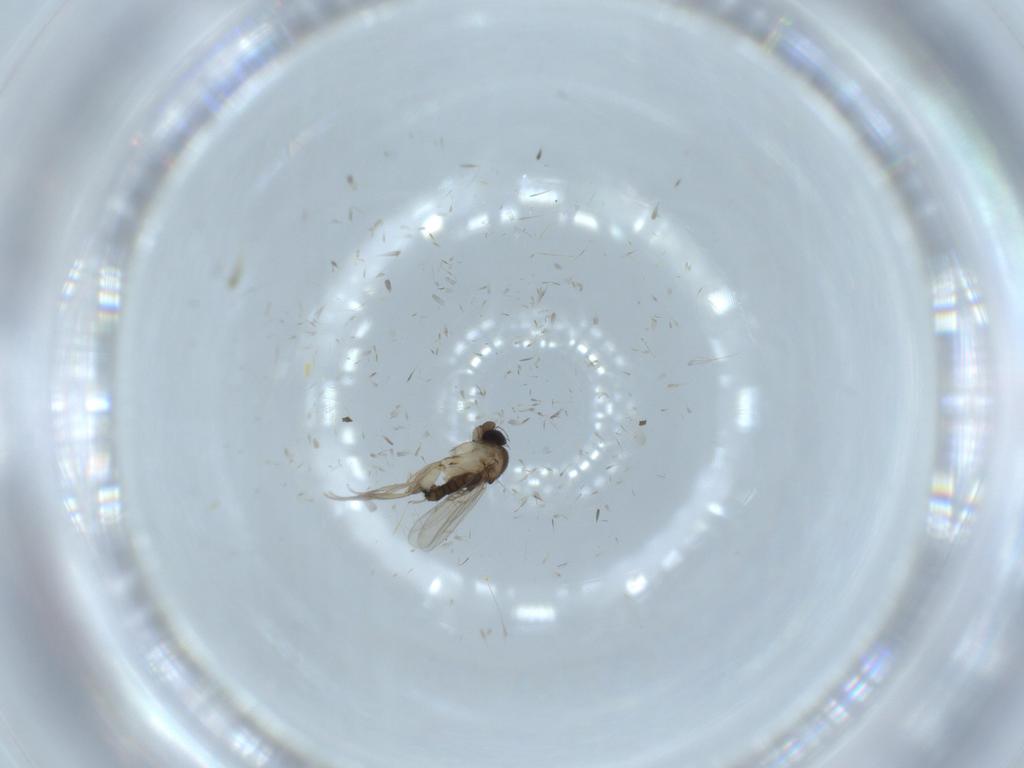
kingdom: Animalia
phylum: Arthropoda
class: Insecta
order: Diptera
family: Phoridae
